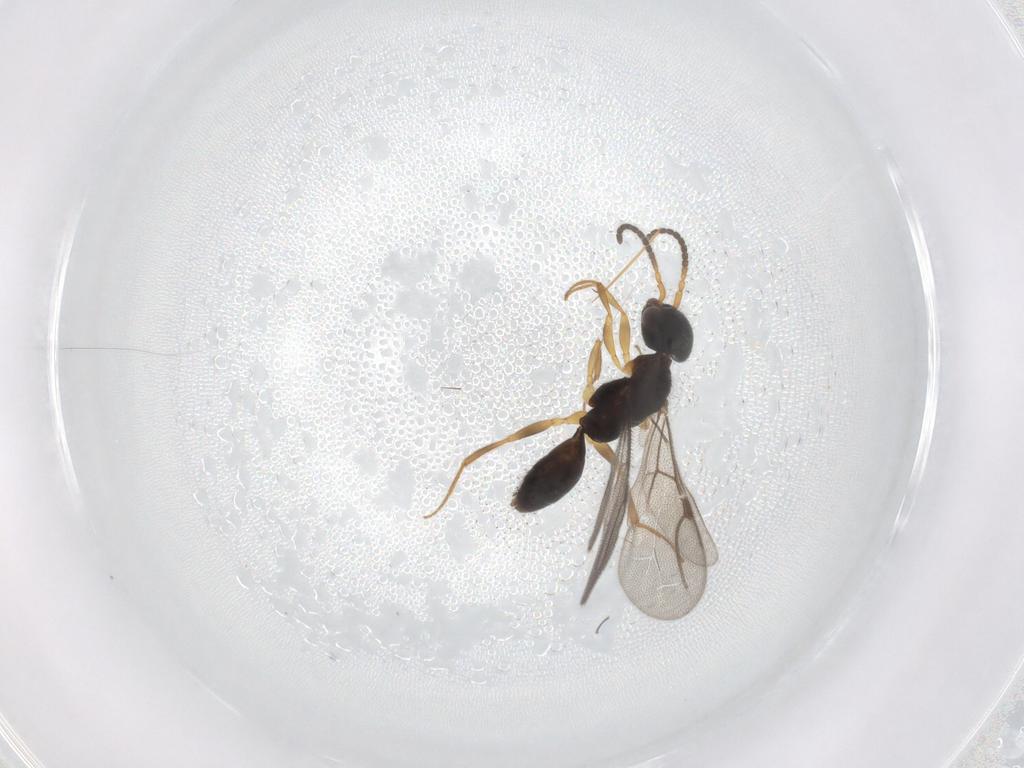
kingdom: Animalia
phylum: Arthropoda
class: Insecta
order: Hymenoptera
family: Bethylidae
